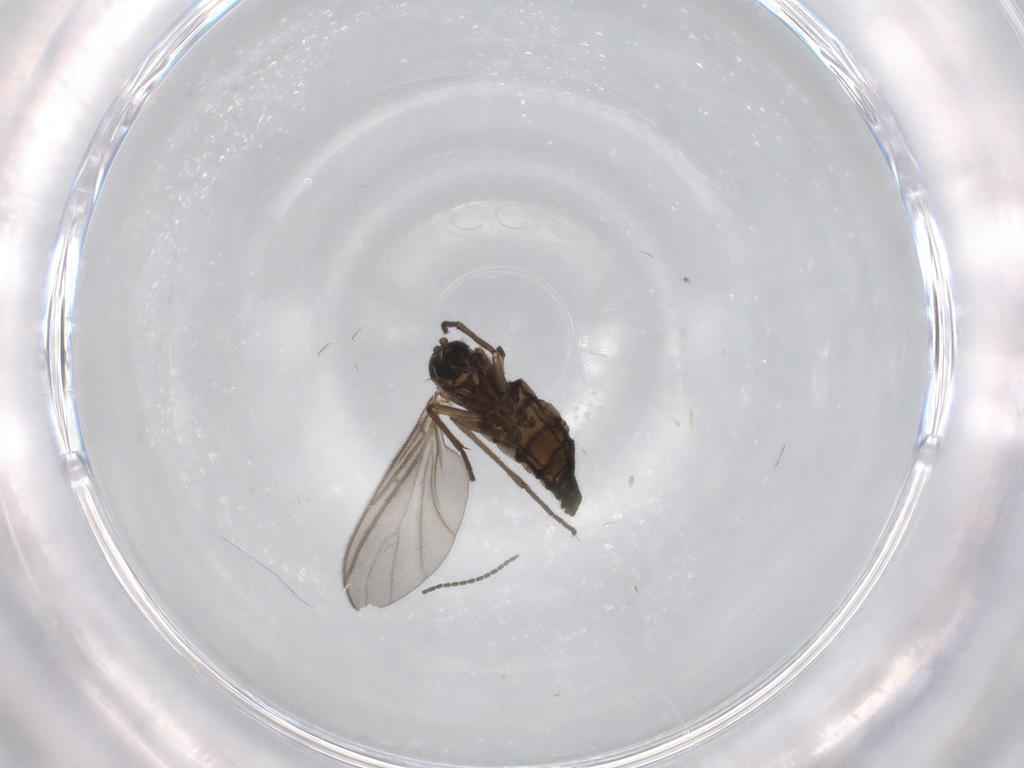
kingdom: Animalia
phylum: Arthropoda
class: Insecta
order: Diptera
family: Sciaridae
